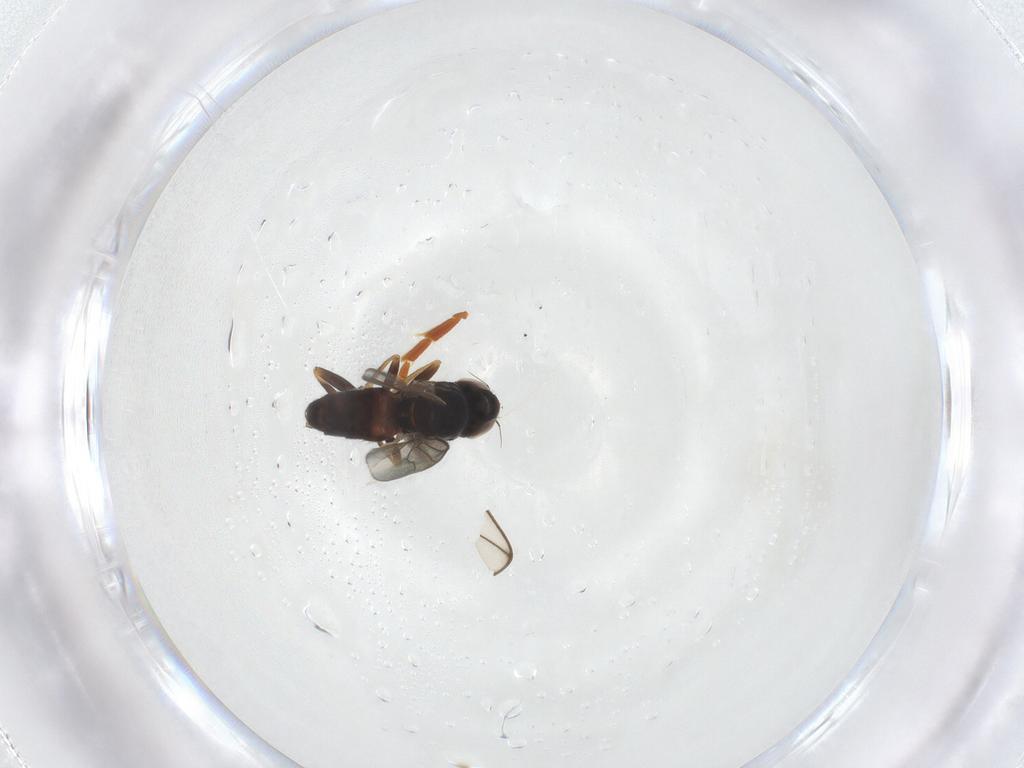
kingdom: Animalia
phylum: Arthropoda
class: Insecta
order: Diptera
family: Chloropidae
